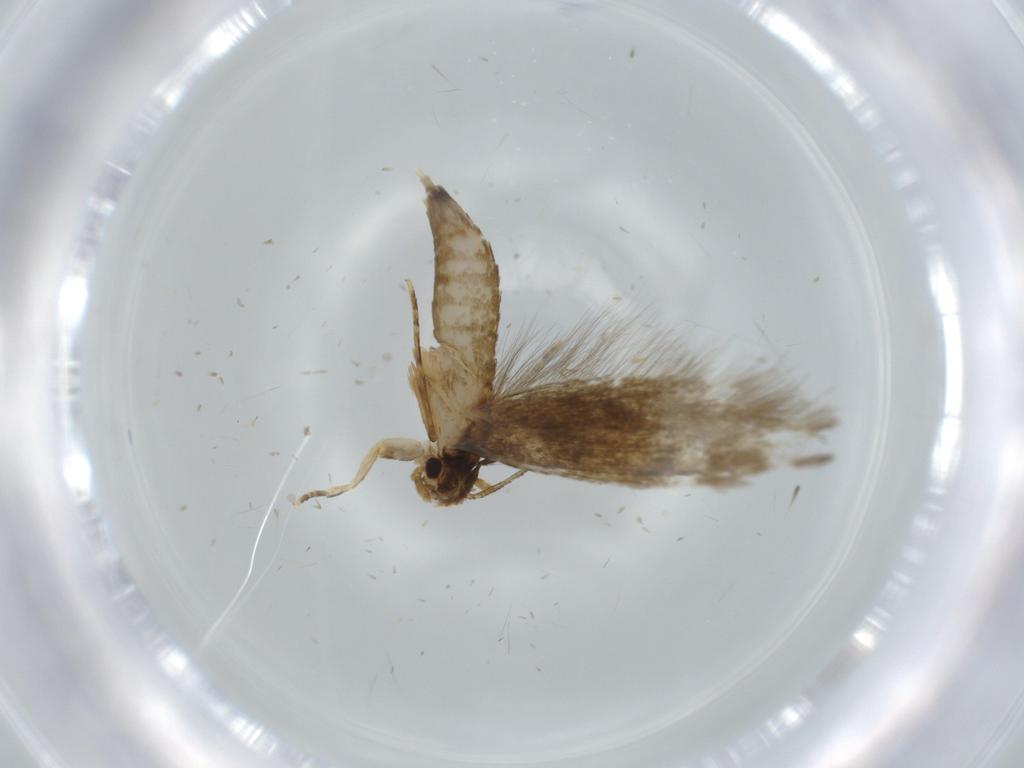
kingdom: Animalia
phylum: Arthropoda
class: Insecta
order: Lepidoptera
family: Tineidae
